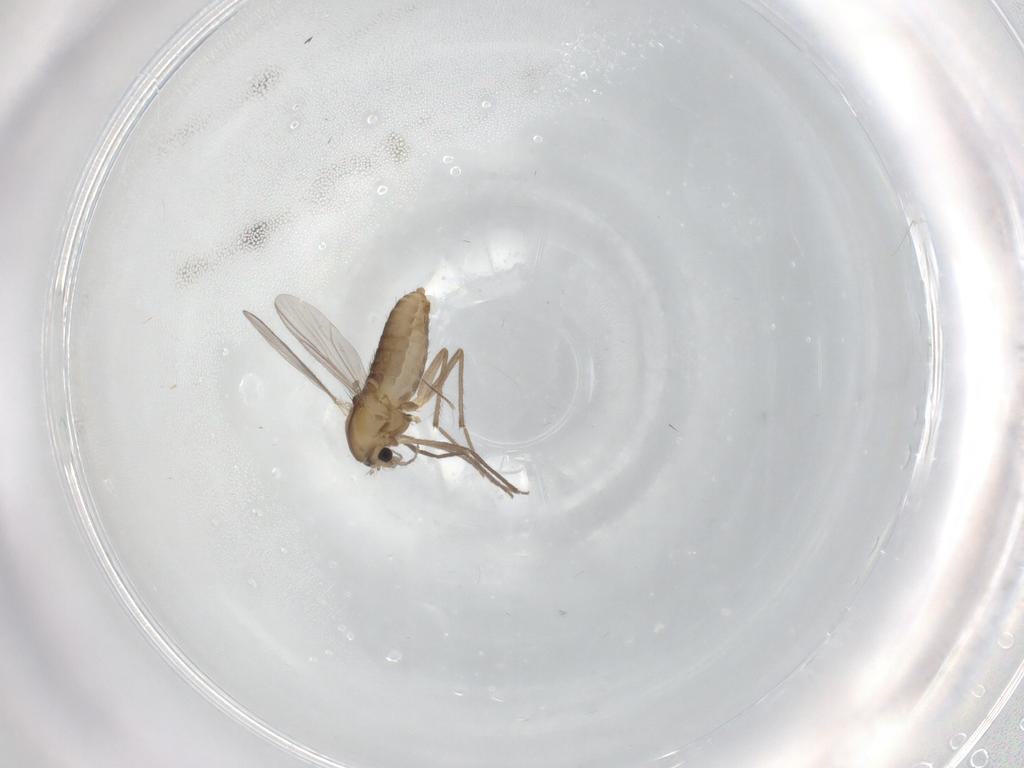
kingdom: Animalia
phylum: Arthropoda
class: Insecta
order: Diptera
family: Chironomidae
